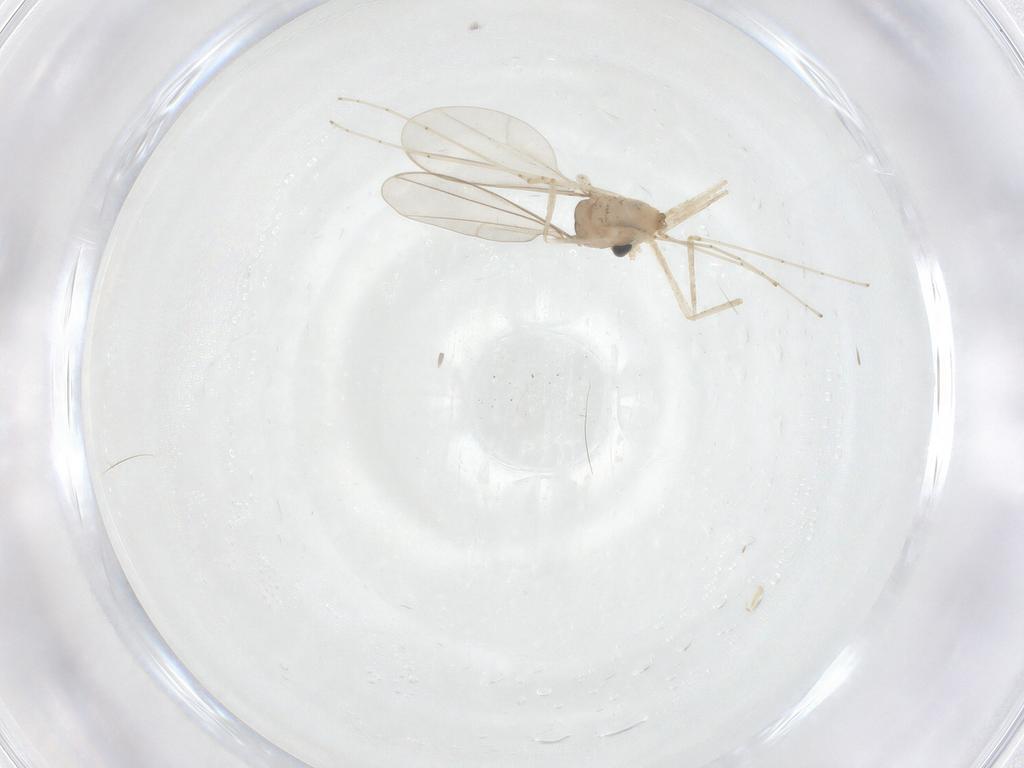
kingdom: Animalia
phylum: Arthropoda
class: Insecta
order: Diptera
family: Cecidomyiidae
